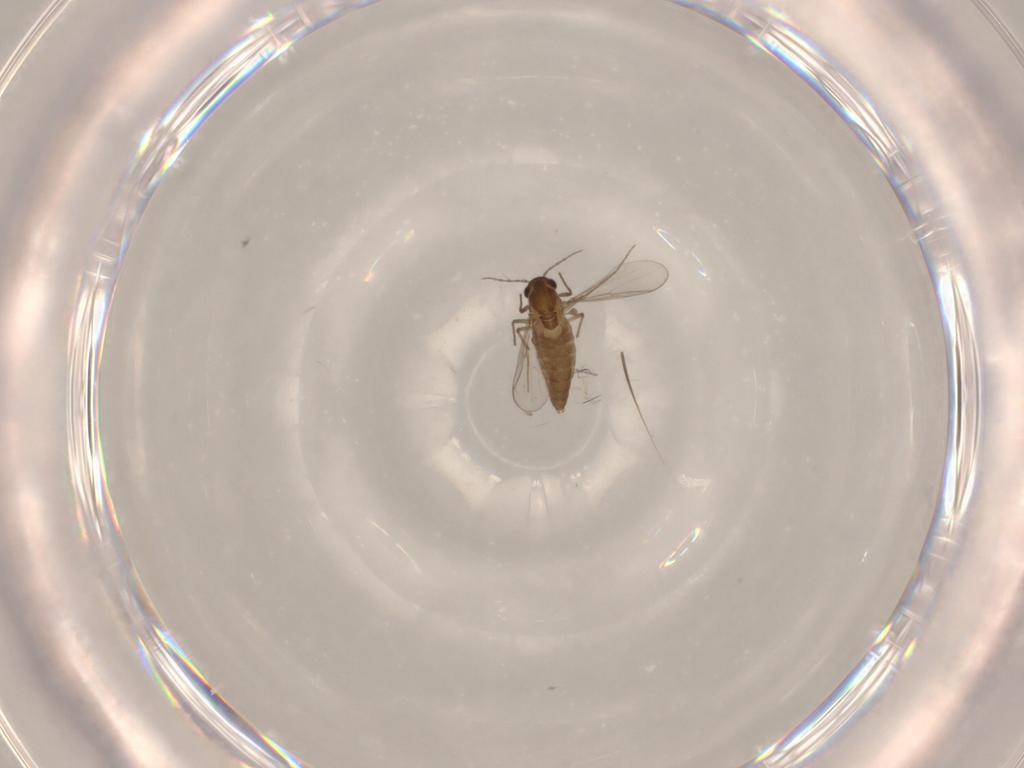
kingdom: Animalia
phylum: Arthropoda
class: Insecta
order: Diptera
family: Chironomidae
